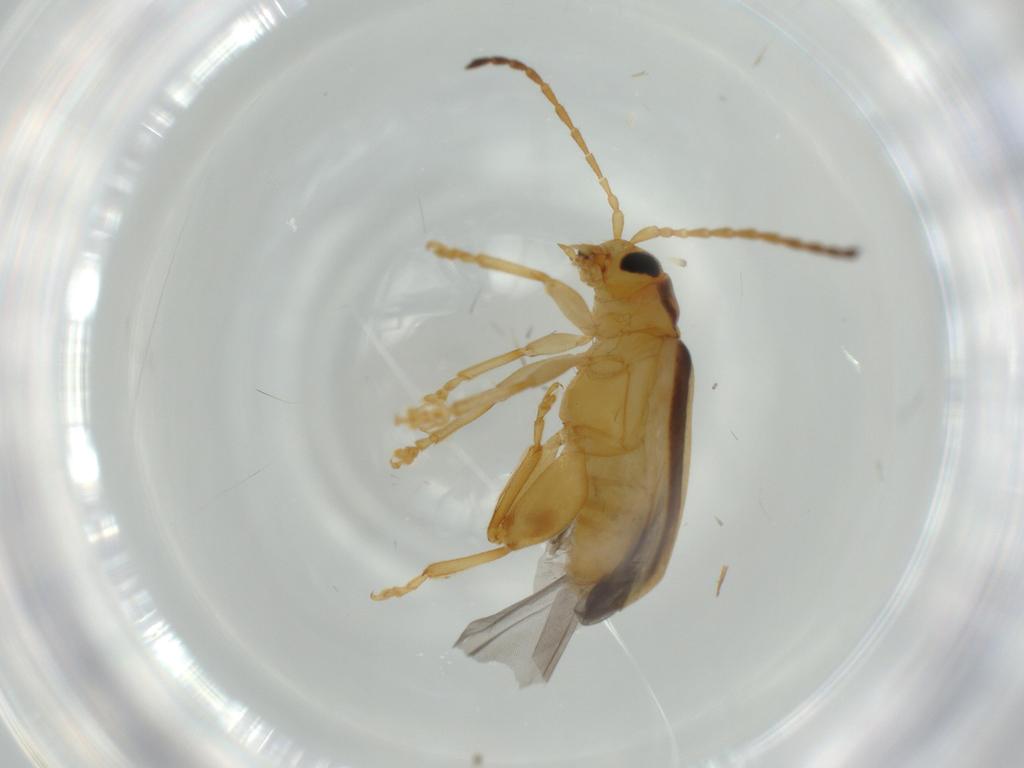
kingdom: Animalia
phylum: Arthropoda
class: Insecta
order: Coleoptera
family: Chrysomelidae
